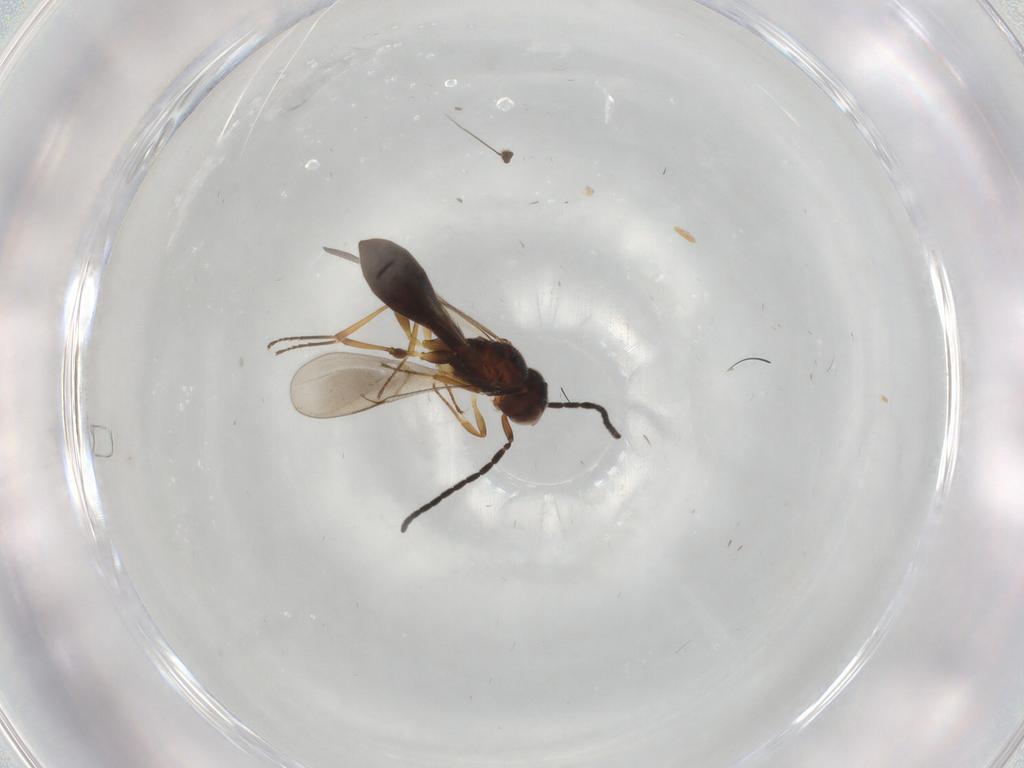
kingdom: Animalia
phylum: Arthropoda
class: Insecta
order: Hymenoptera
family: Scelionidae
